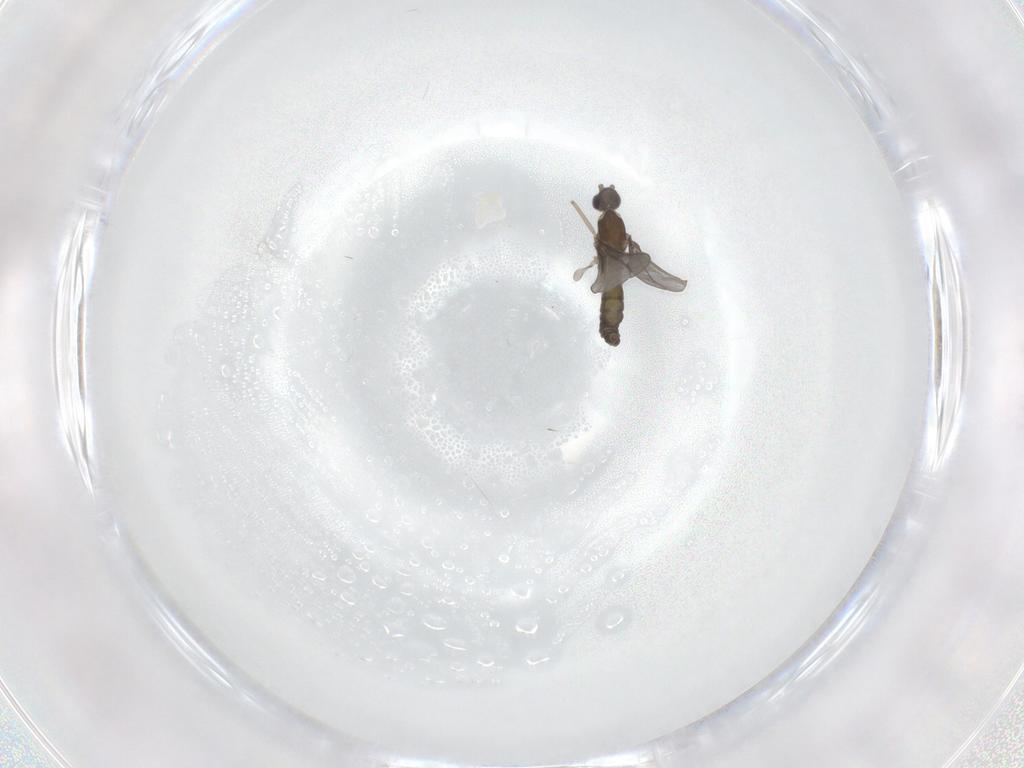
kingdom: Animalia
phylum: Arthropoda
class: Insecta
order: Diptera
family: Cecidomyiidae
